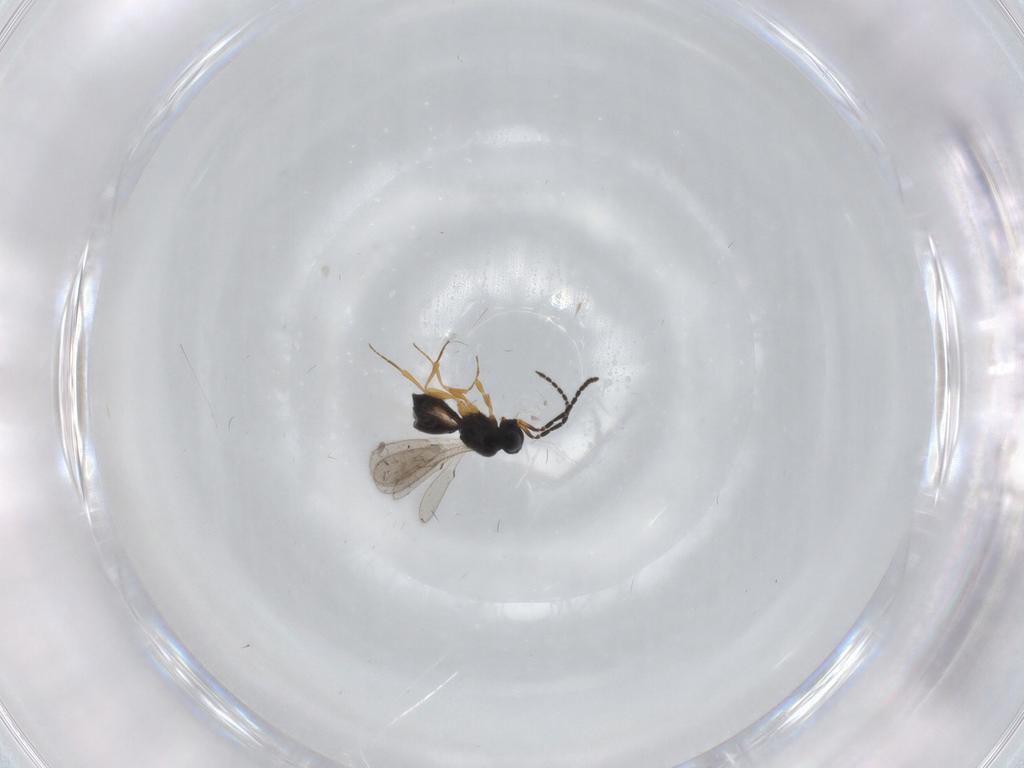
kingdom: Animalia
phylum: Arthropoda
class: Insecta
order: Hymenoptera
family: Scelionidae
